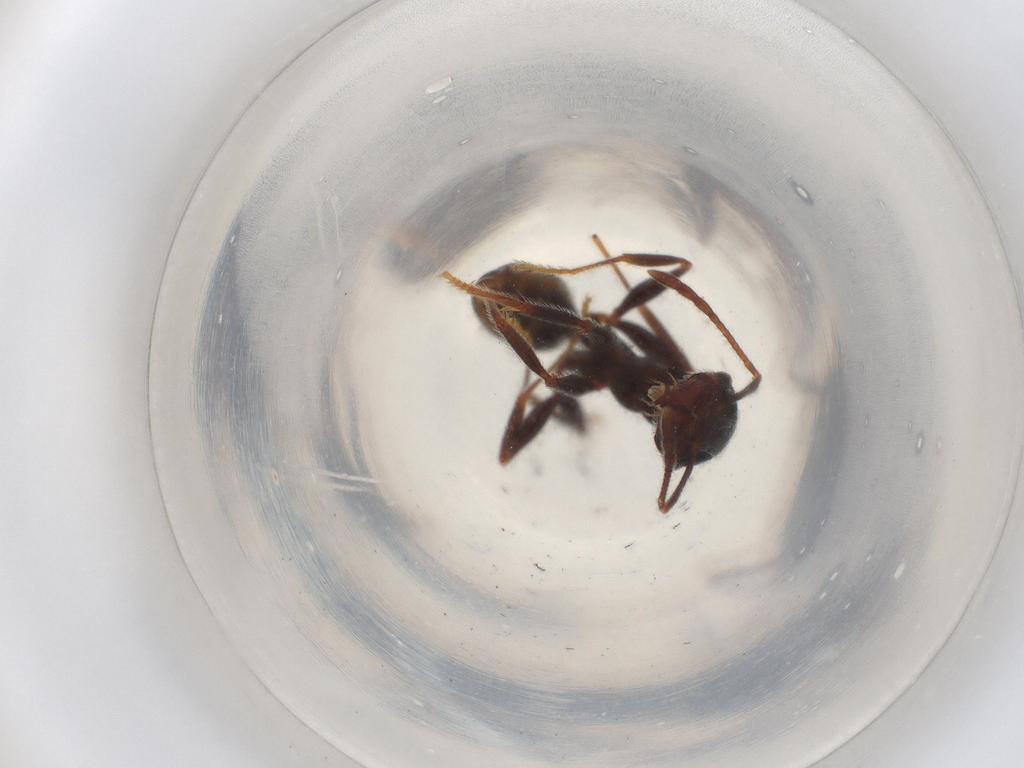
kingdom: Animalia
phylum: Arthropoda
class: Insecta
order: Hymenoptera
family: Formicidae
